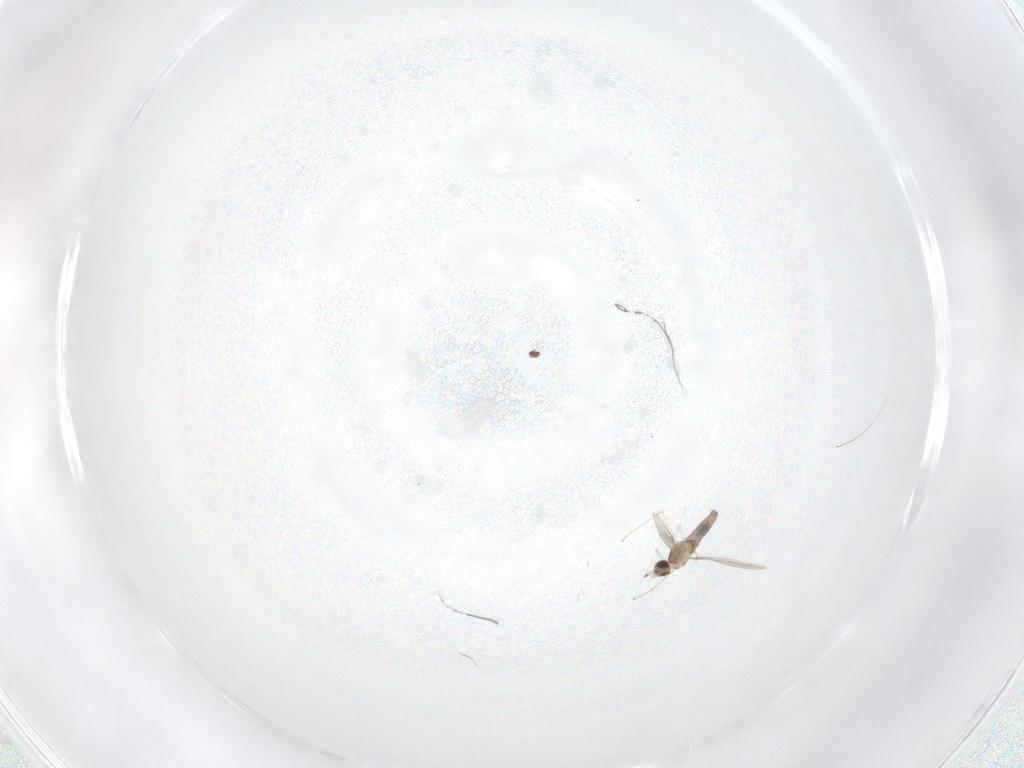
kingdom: Animalia
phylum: Arthropoda
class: Insecta
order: Diptera
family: Cecidomyiidae
